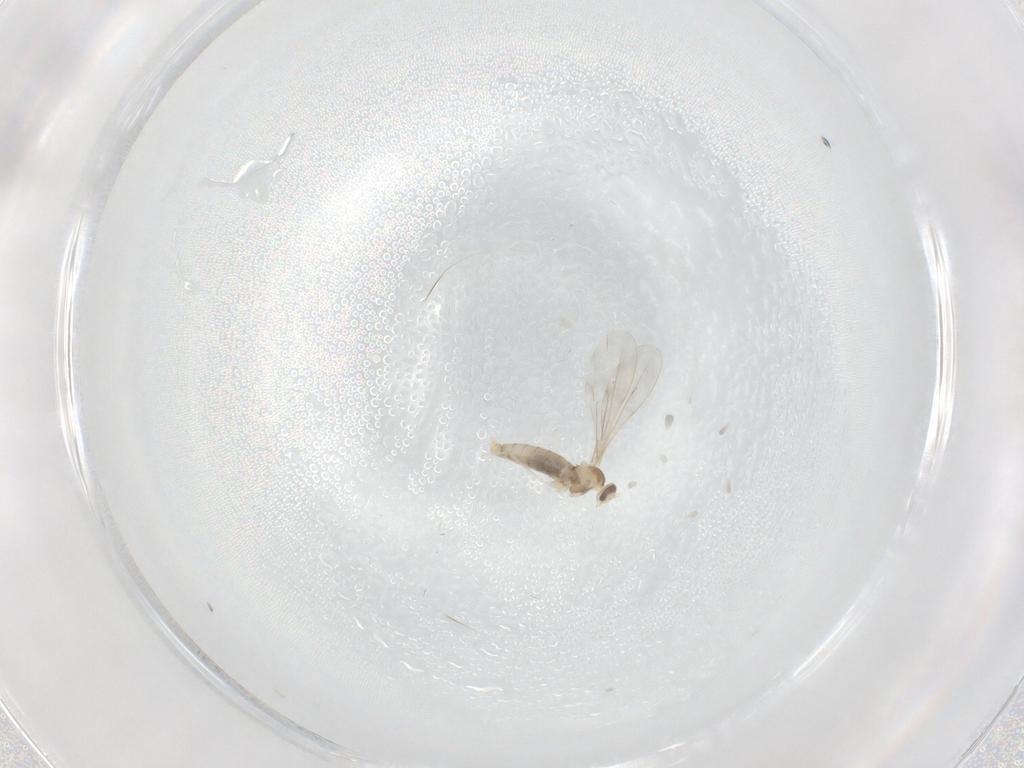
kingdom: Animalia
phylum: Arthropoda
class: Insecta
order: Diptera
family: Cecidomyiidae
